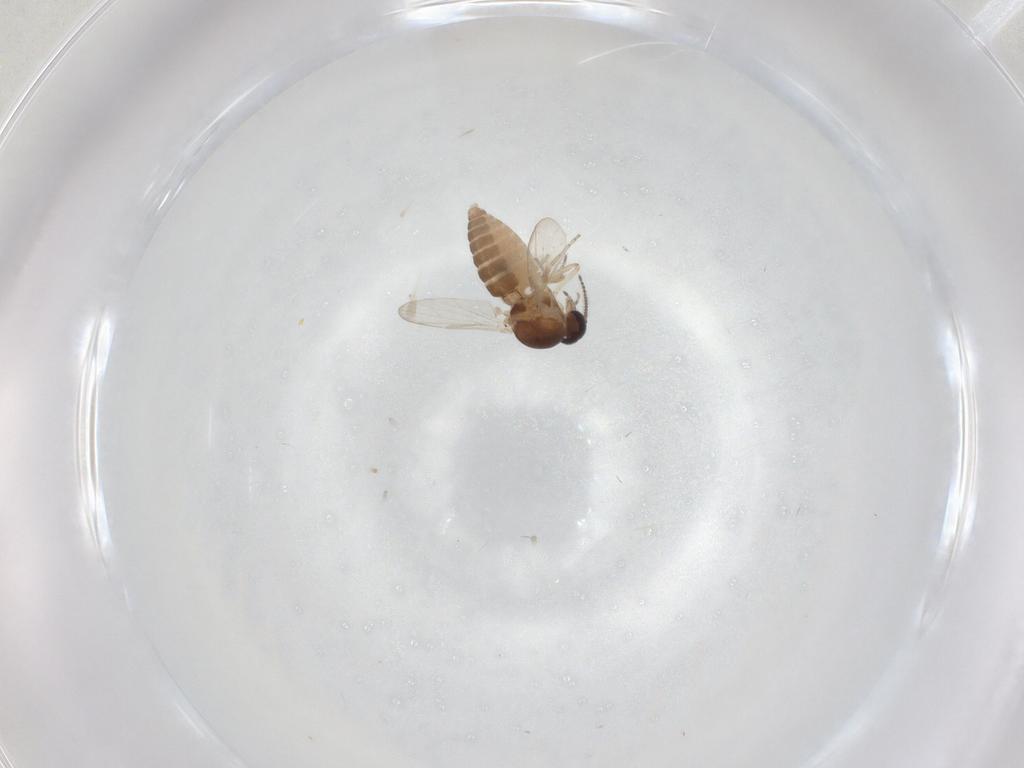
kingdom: Animalia
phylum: Arthropoda
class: Insecta
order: Diptera
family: Ceratopogonidae
